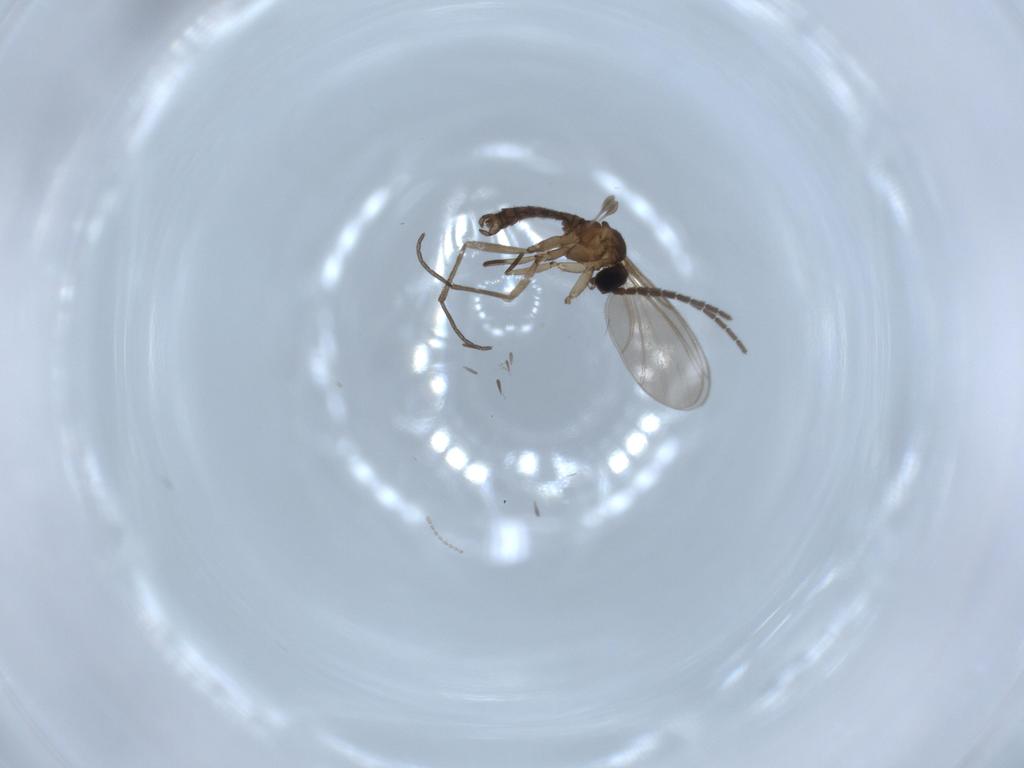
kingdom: Animalia
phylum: Arthropoda
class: Insecta
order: Diptera
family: Ceratopogonidae
